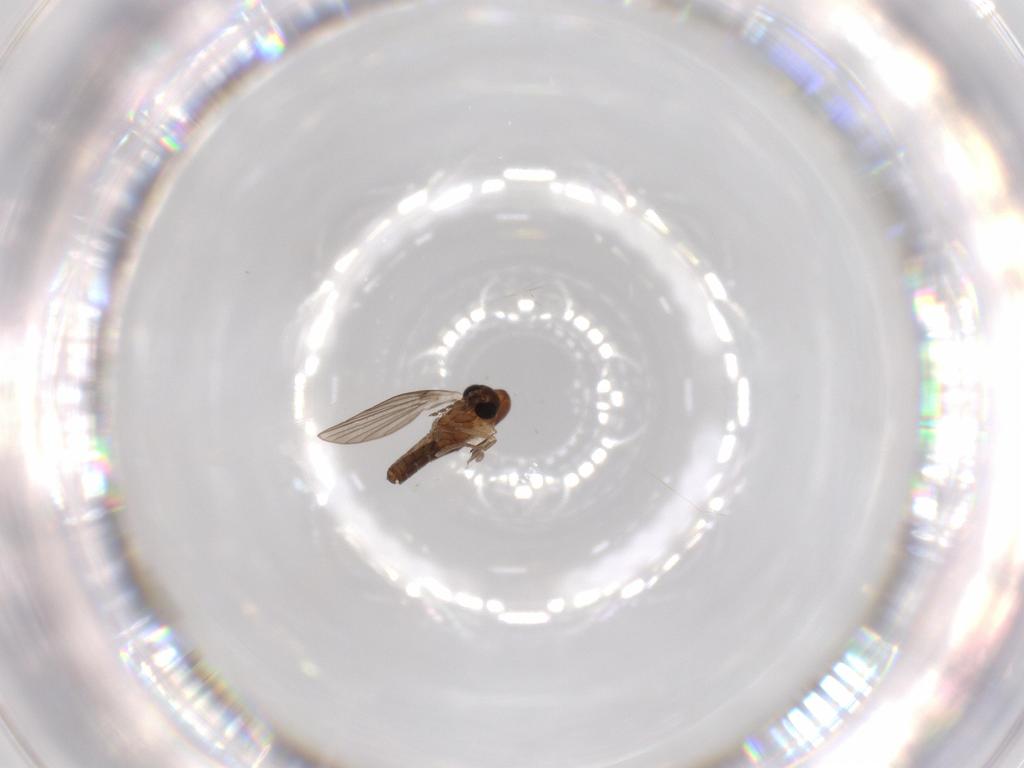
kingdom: Animalia
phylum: Arthropoda
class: Insecta
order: Diptera
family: Psychodidae
